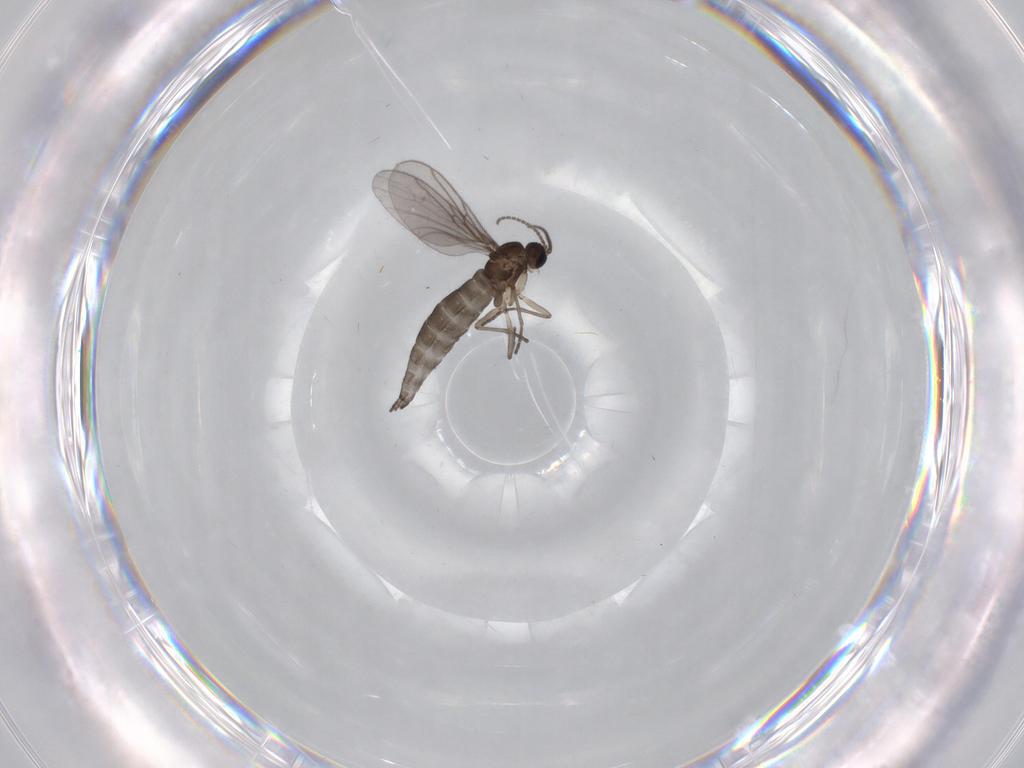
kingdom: Animalia
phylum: Arthropoda
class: Insecta
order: Diptera
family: Sciaridae
